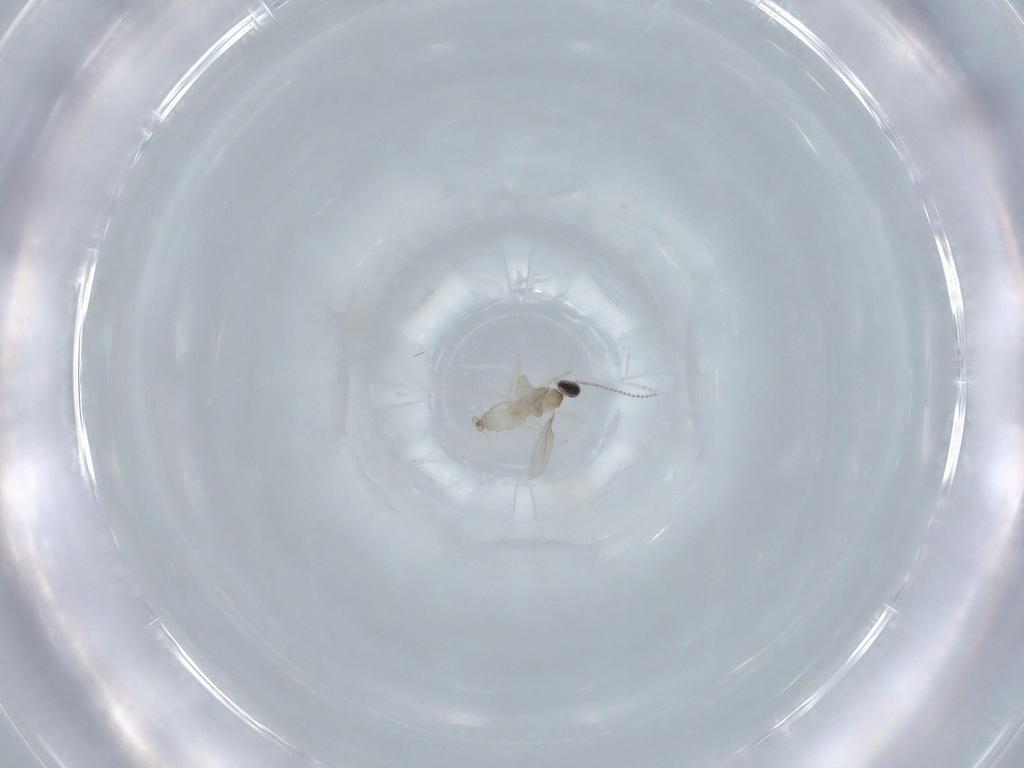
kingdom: Animalia
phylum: Arthropoda
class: Insecta
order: Diptera
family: Cecidomyiidae
